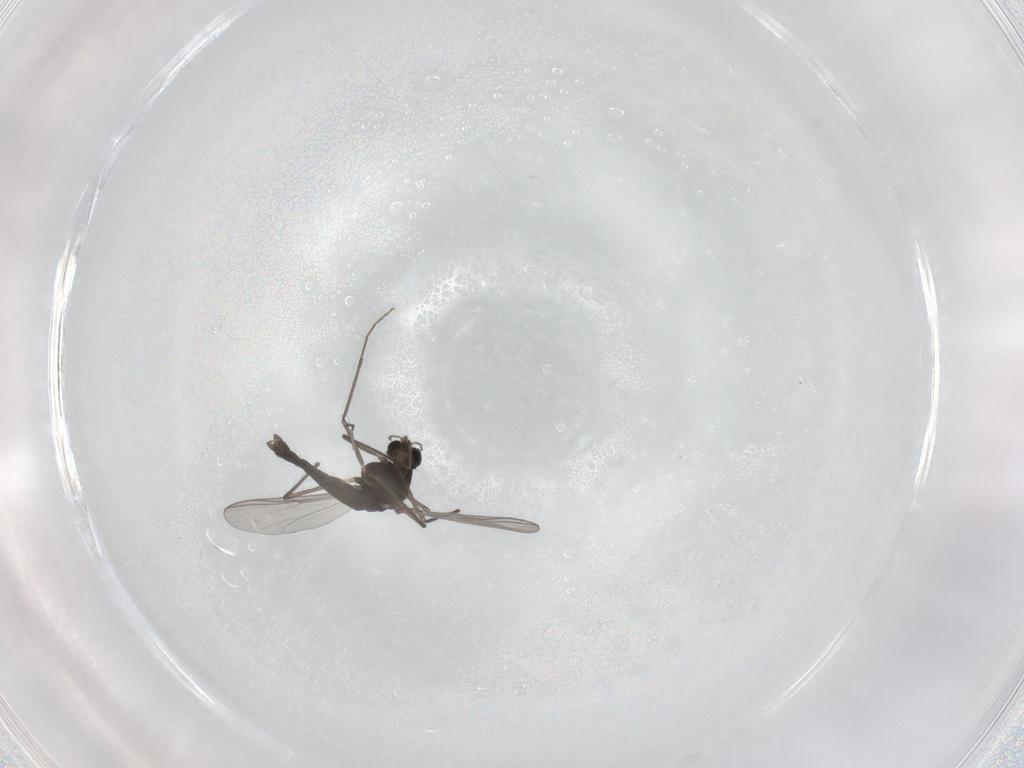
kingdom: Animalia
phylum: Arthropoda
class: Insecta
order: Diptera
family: Chironomidae
